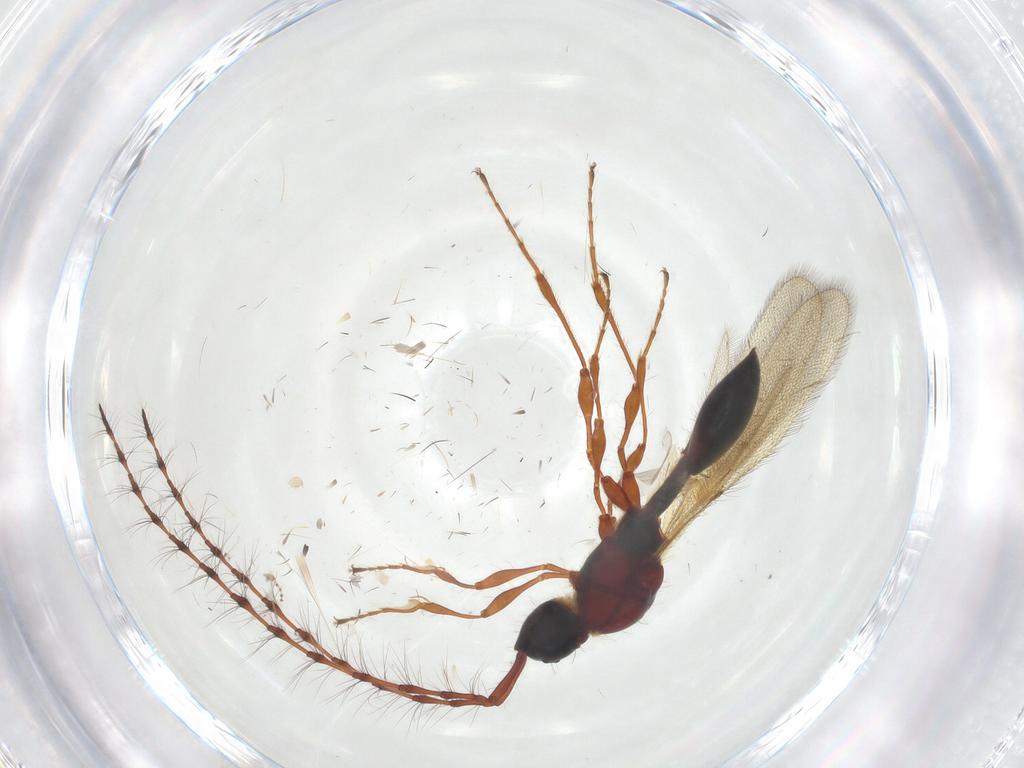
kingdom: Animalia
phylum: Arthropoda
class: Insecta
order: Hymenoptera
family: Diapriidae
